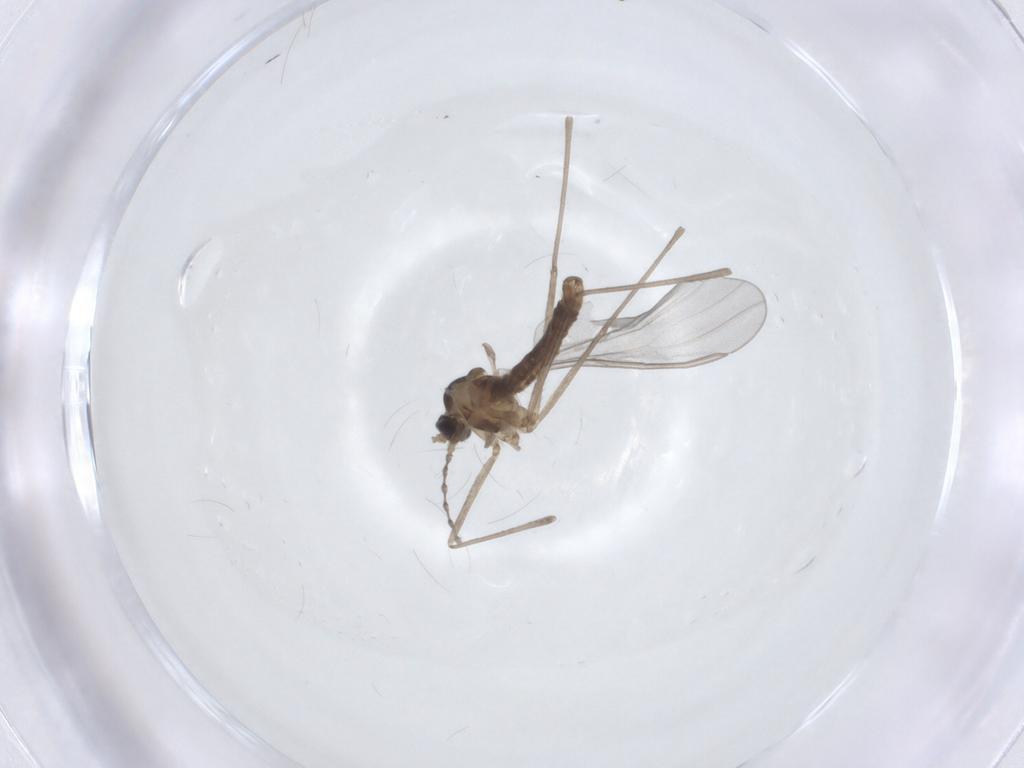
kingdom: Animalia
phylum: Arthropoda
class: Insecta
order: Diptera
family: Cecidomyiidae
